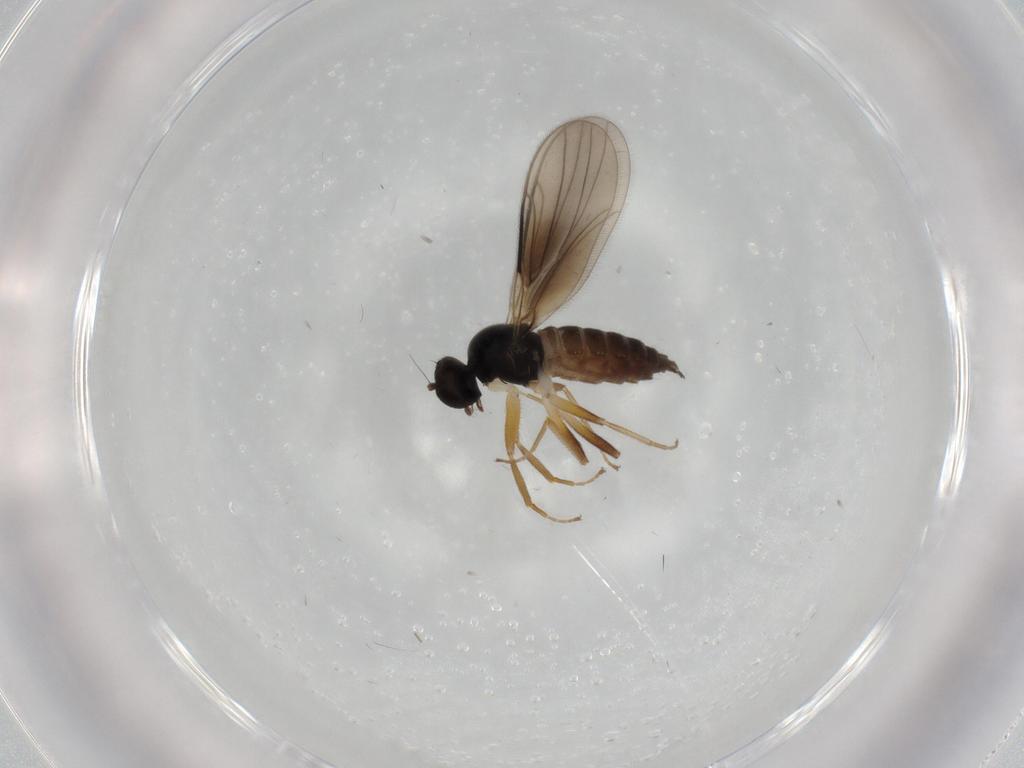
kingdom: Animalia
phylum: Arthropoda
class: Insecta
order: Diptera
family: Hybotidae
